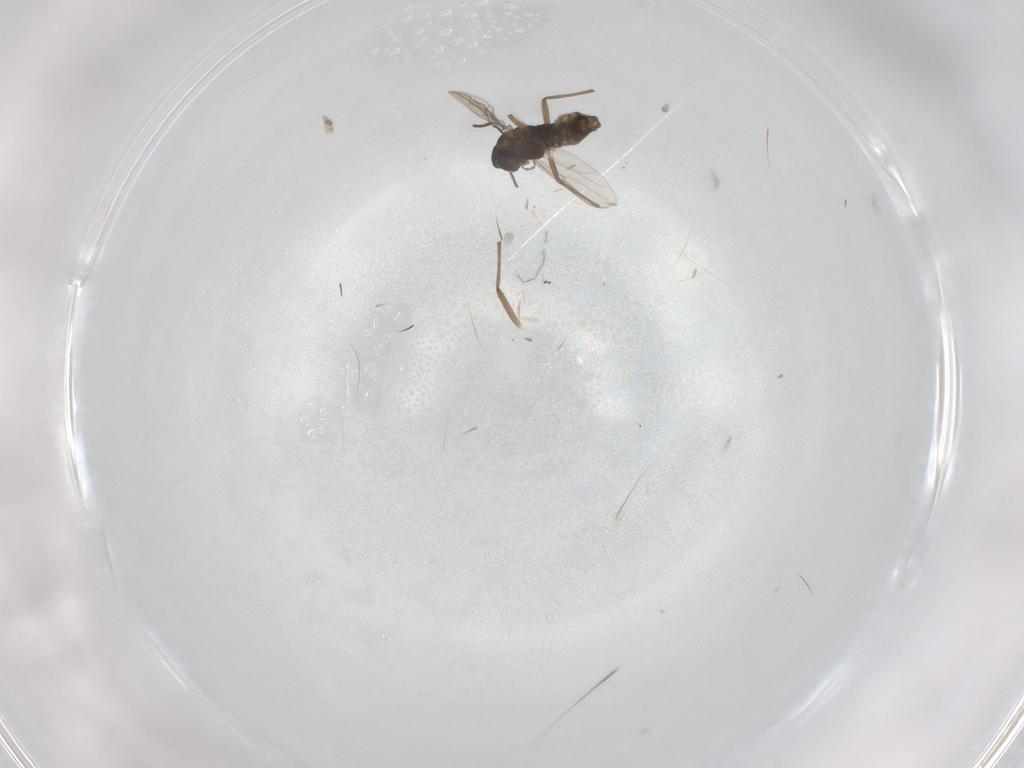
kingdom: Animalia
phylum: Arthropoda
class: Insecta
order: Diptera
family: Chironomidae
